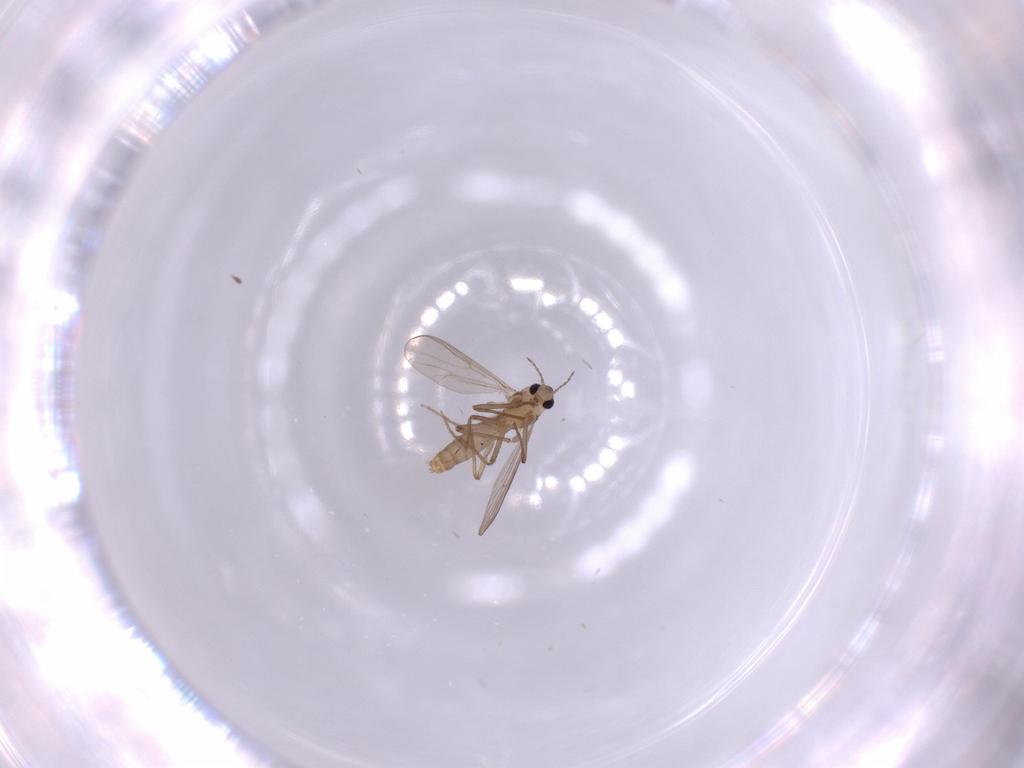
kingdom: Animalia
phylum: Arthropoda
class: Insecta
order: Diptera
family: Chironomidae
